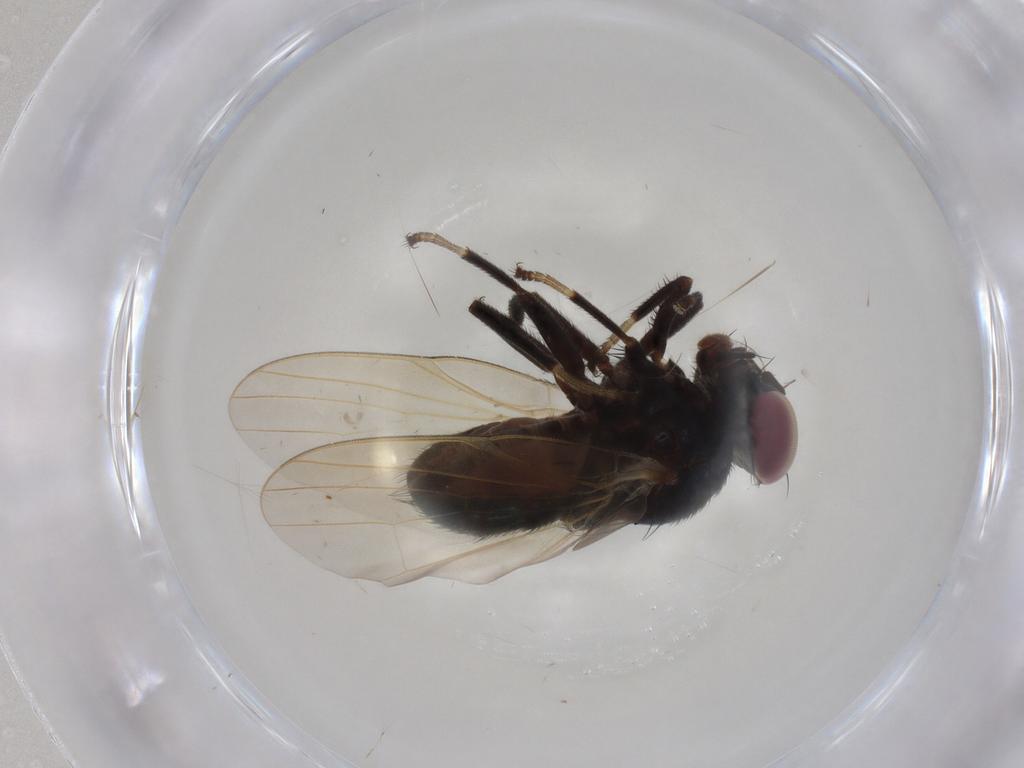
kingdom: Animalia
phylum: Arthropoda
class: Insecta
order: Diptera
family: Lonchaeidae
